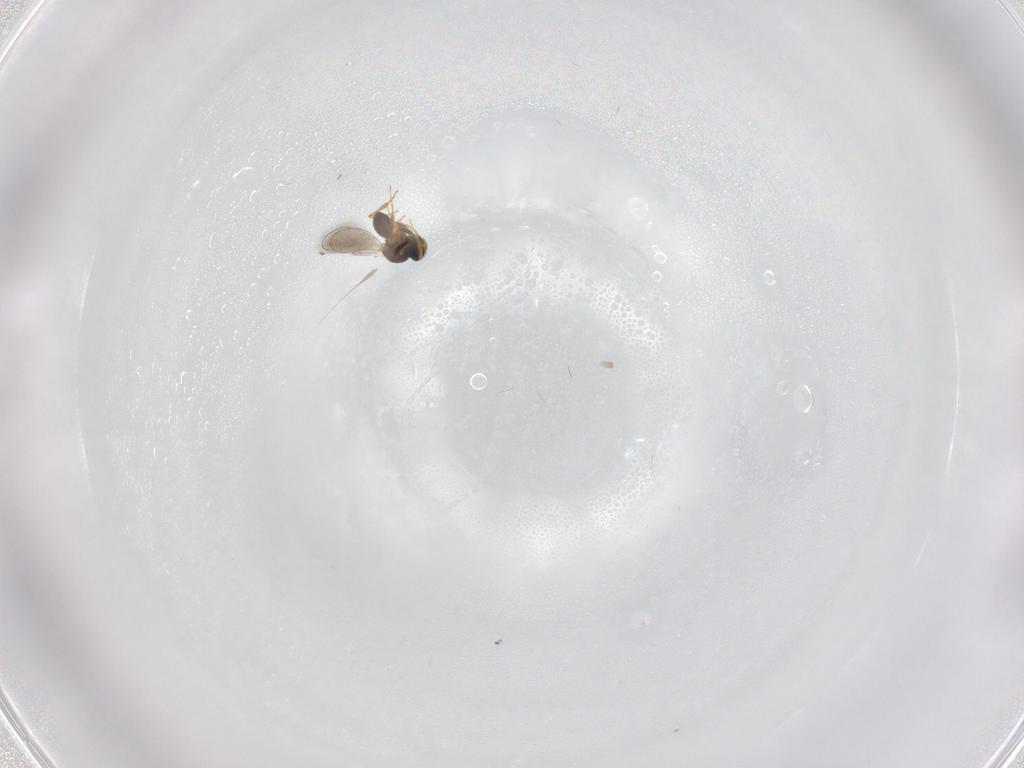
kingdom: Animalia
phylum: Arthropoda
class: Insecta
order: Hymenoptera
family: Platygastridae
